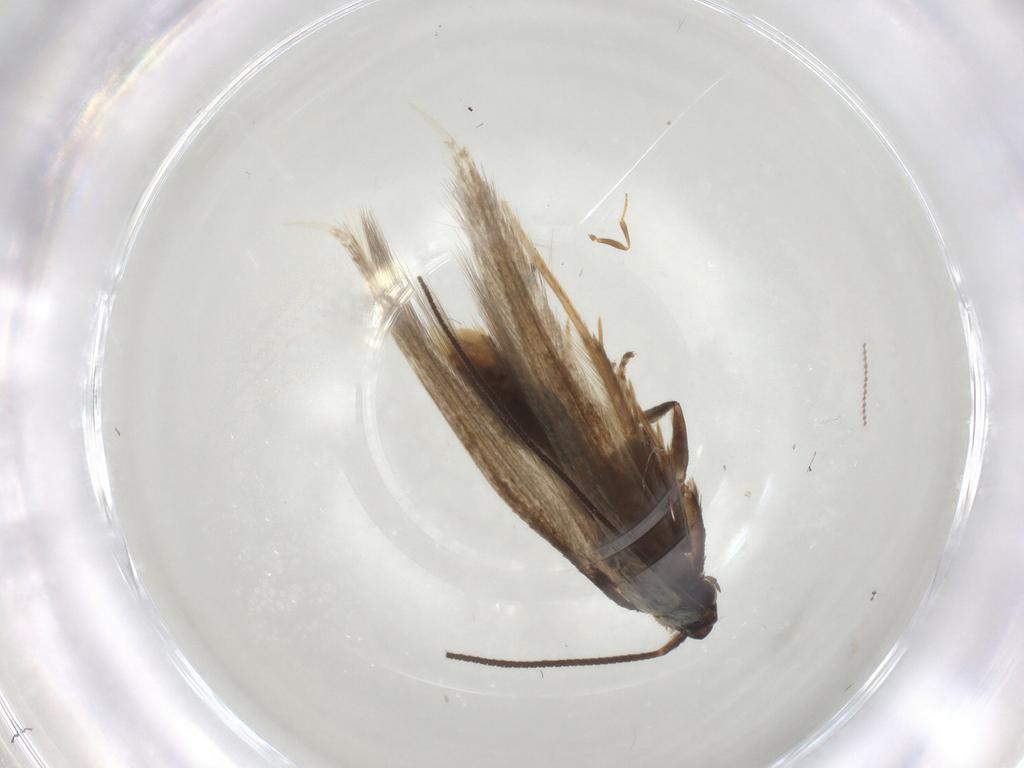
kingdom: Animalia
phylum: Arthropoda
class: Insecta
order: Lepidoptera
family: Tineidae
